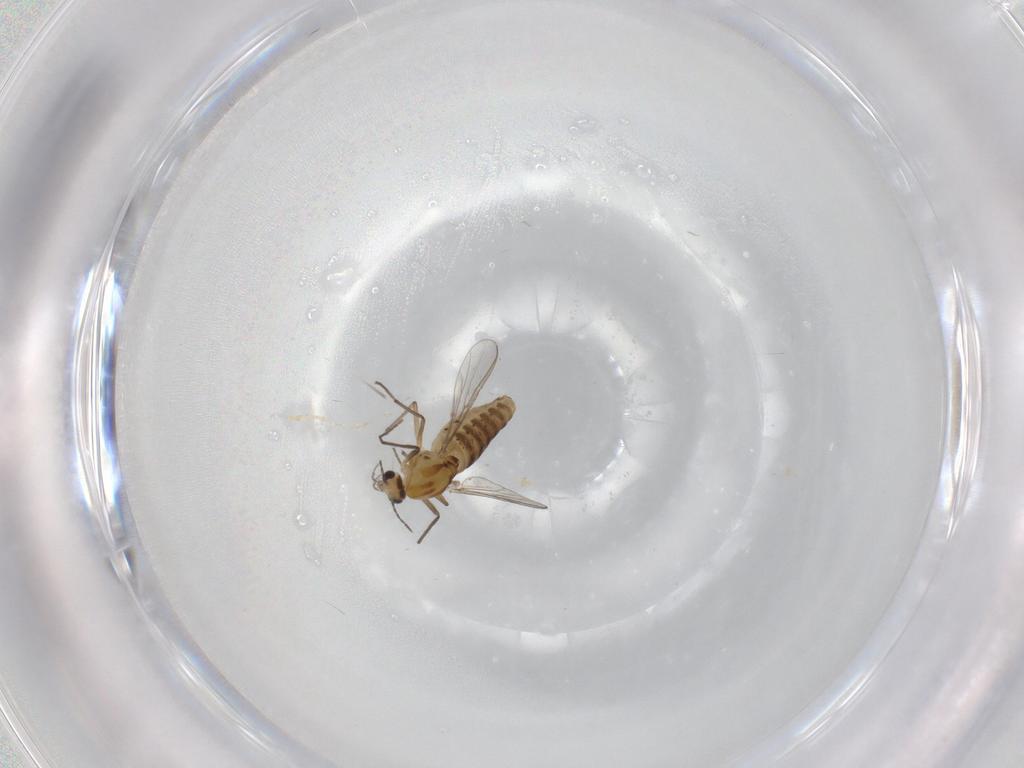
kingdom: Animalia
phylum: Arthropoda
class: Insecta
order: Diptera
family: Chironomidae
